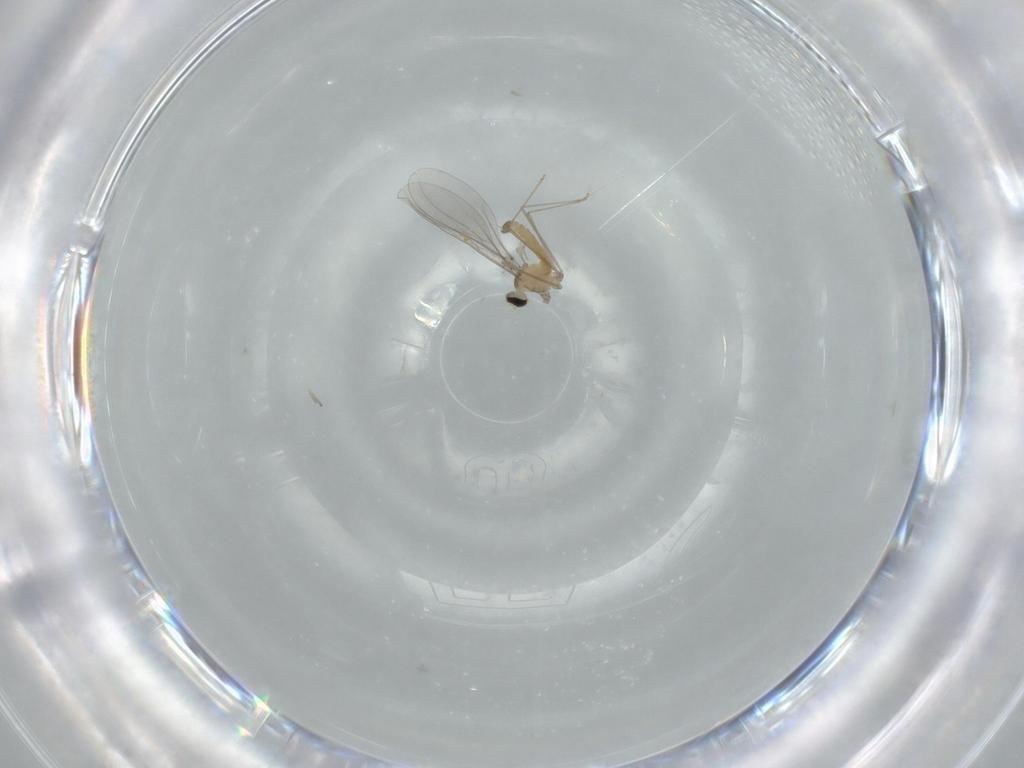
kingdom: Animalia
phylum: Arthropoda
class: Insecta
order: Diptera
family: Cecidomyiidae
